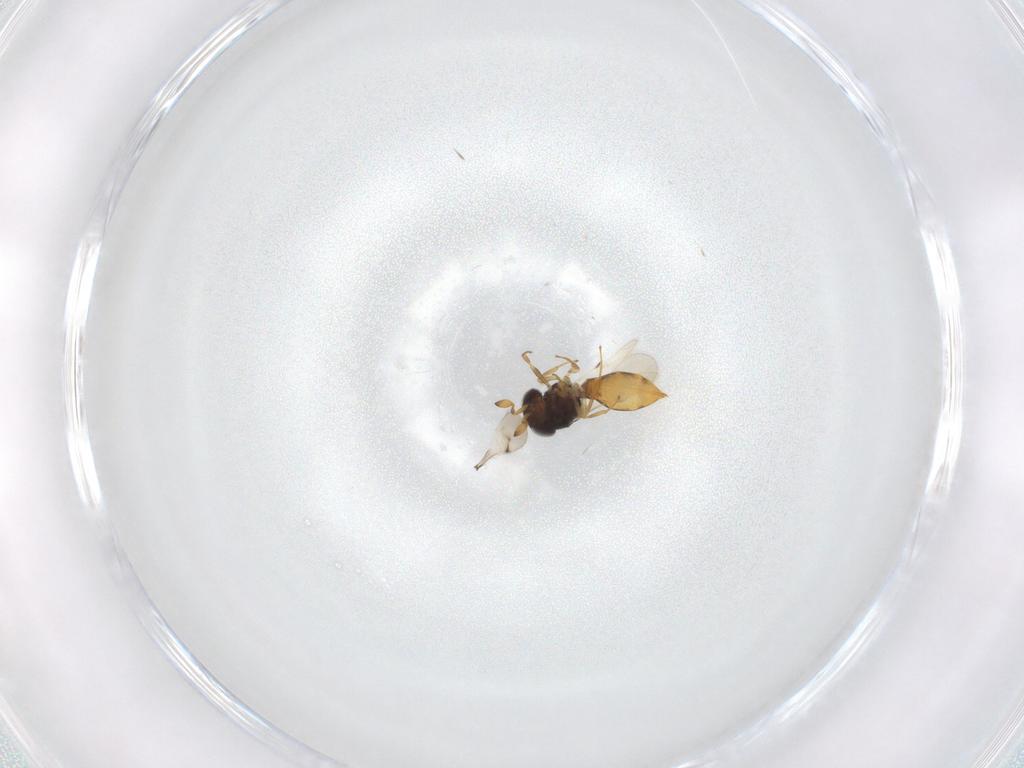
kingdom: Animalia
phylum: Arthropoda
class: Insecta
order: Hymenoptera
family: Scelionidae
